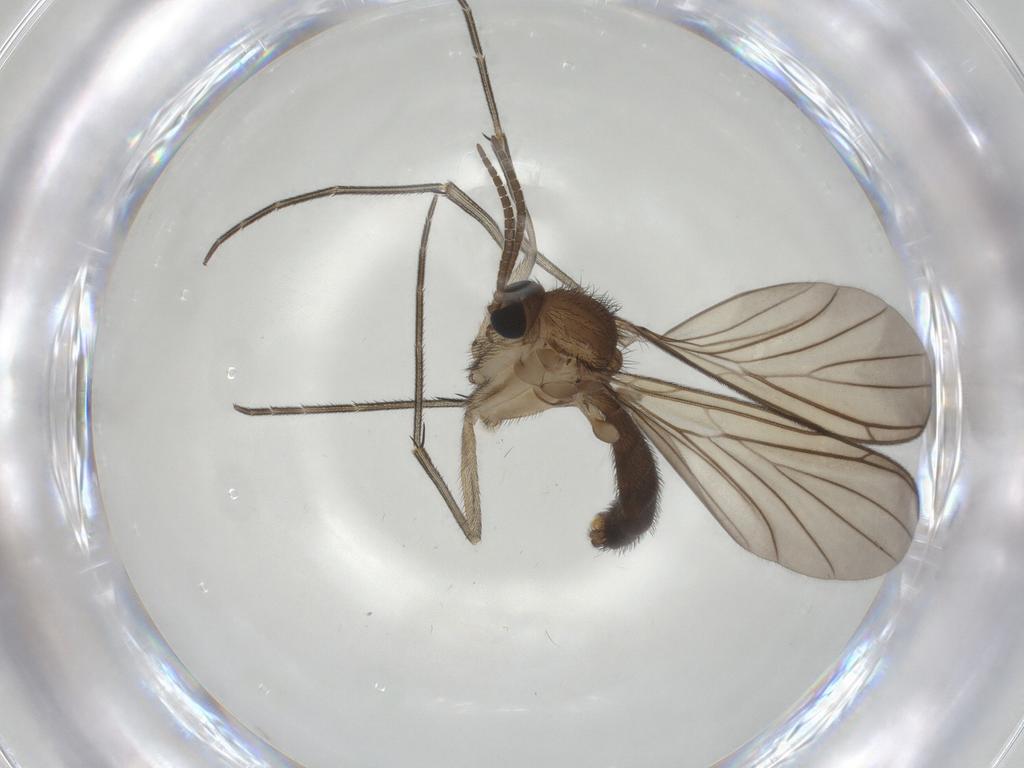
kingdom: Animalia
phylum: Arthropoda
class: Insecta
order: Diptera
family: Keroplatidae
